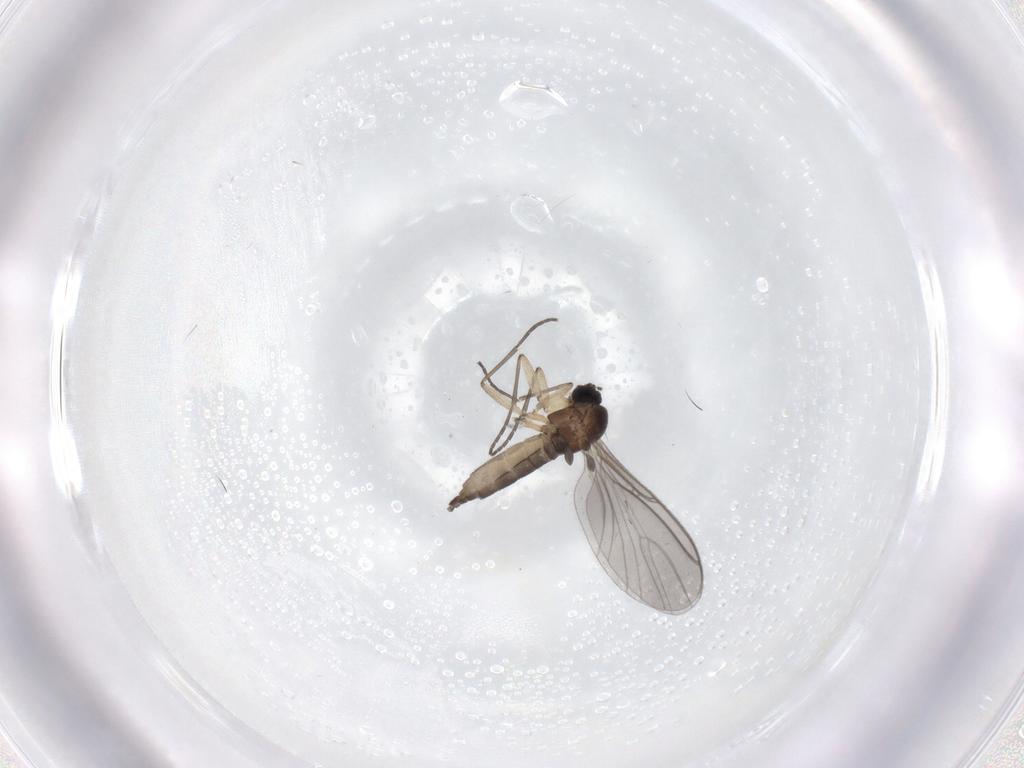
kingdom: Animalia
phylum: Arthropoda
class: Insecta
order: Diptera
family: Sciaridae
